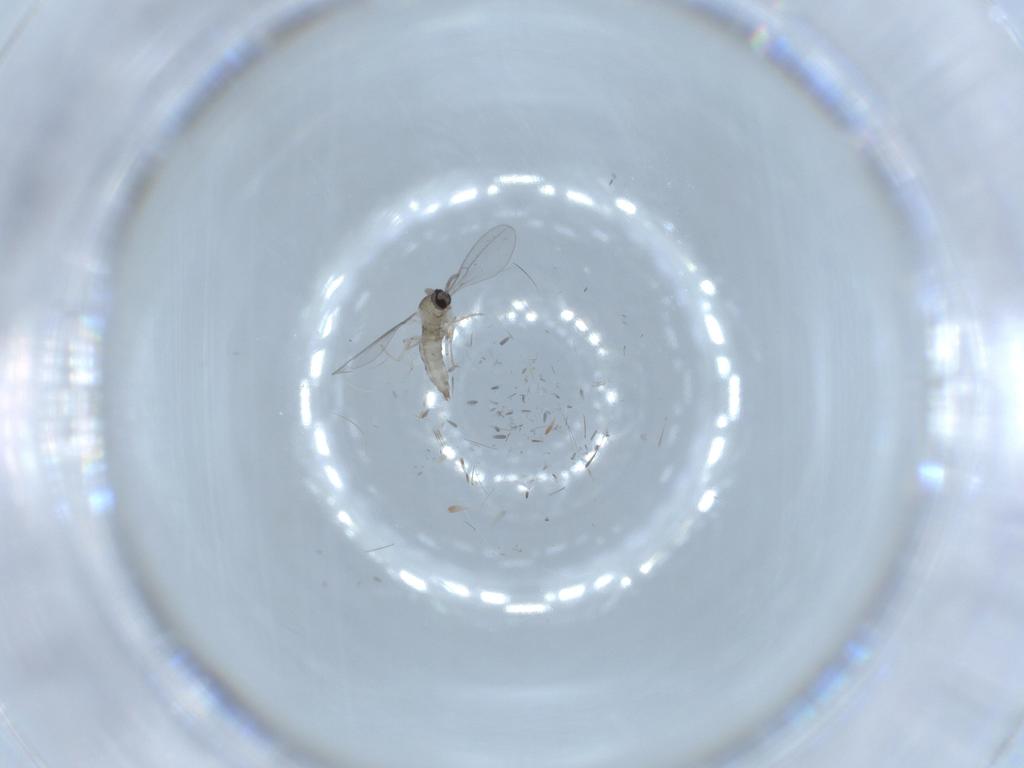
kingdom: Animalia
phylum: Arthropoda
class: Insecta
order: Diptera
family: Cecidomyiidae
